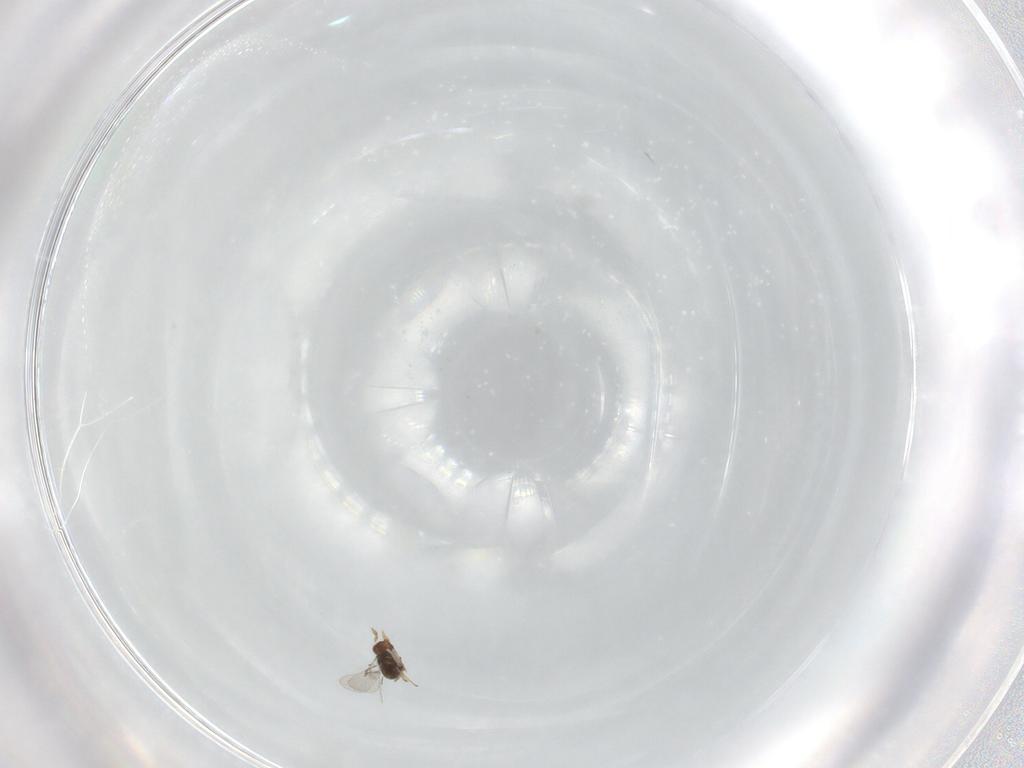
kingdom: Animalia
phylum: Arthropoda
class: Insecta
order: Hymenoptera
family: Trichogrammatidae
